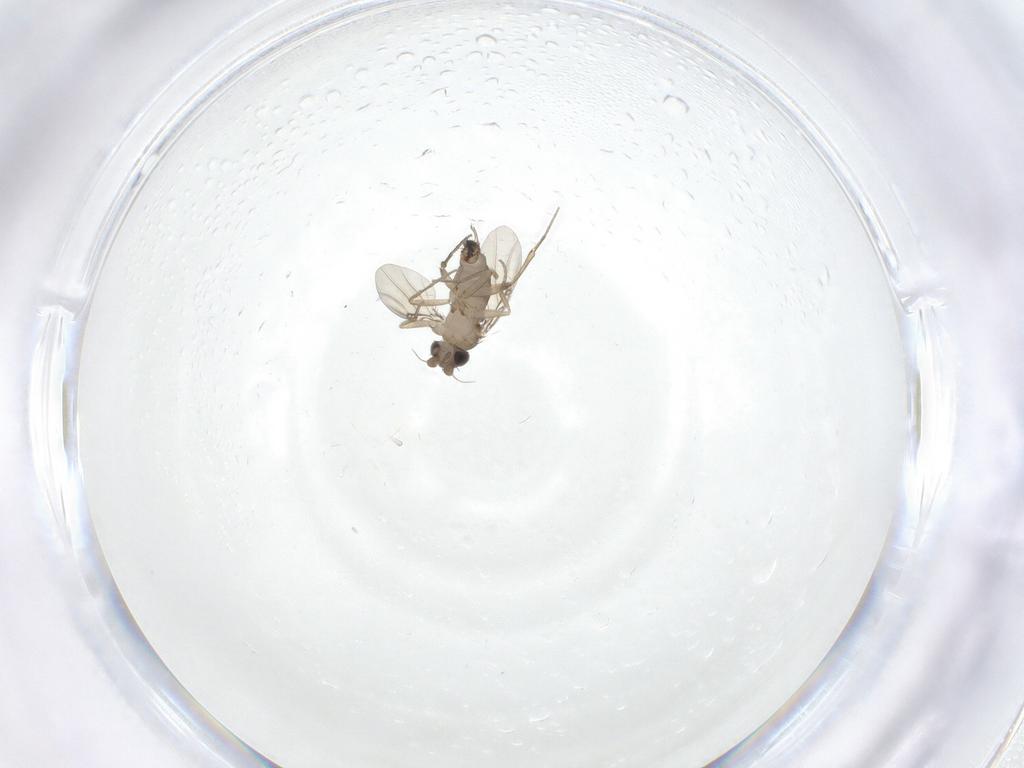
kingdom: Animalia
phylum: Arthropoda
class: Insecta
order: Diptera
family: Phoridae
